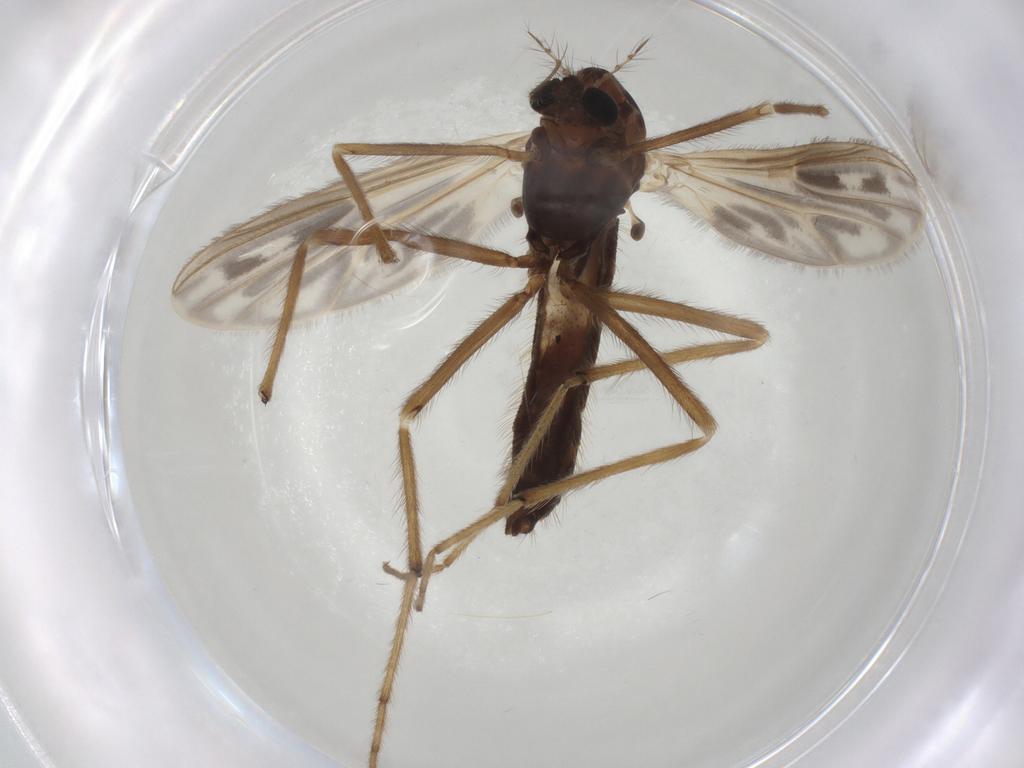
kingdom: Animalia
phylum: Arthropoda
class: Insecta
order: Diptera
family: Chironomidae
